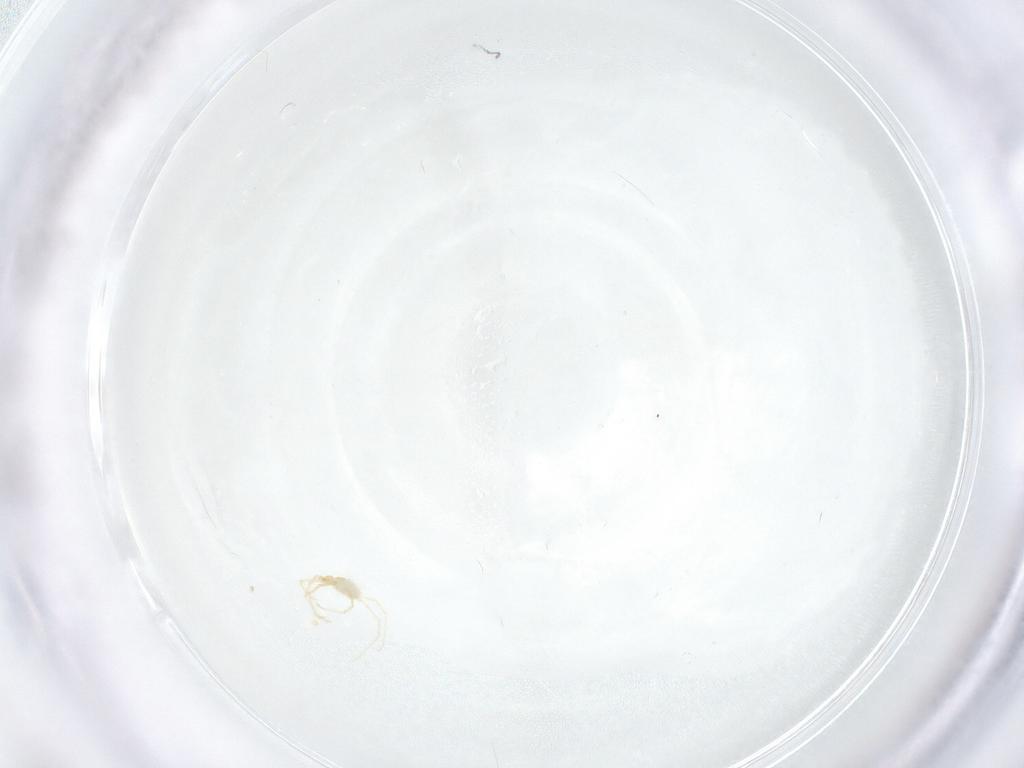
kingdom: Animalia
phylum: Arthropoda
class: Arachnida
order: Trombidiformes
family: Erythraeidae
